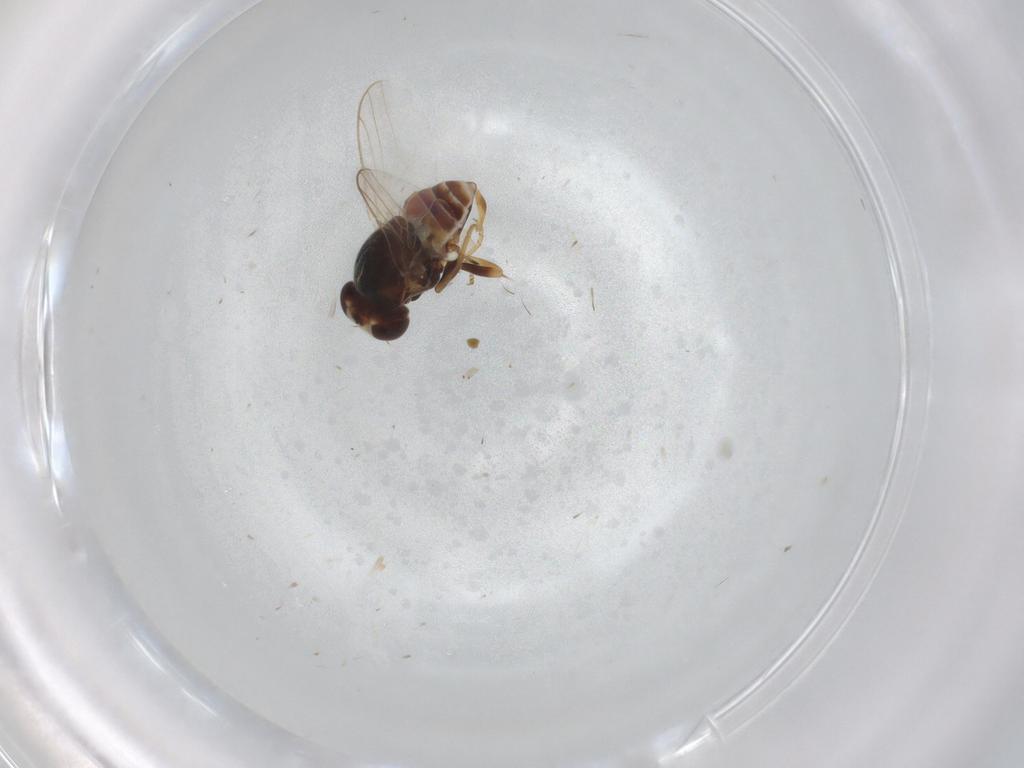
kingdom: Animalia
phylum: Arthropoda
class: Insecta
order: Diptera
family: Chloropidae
